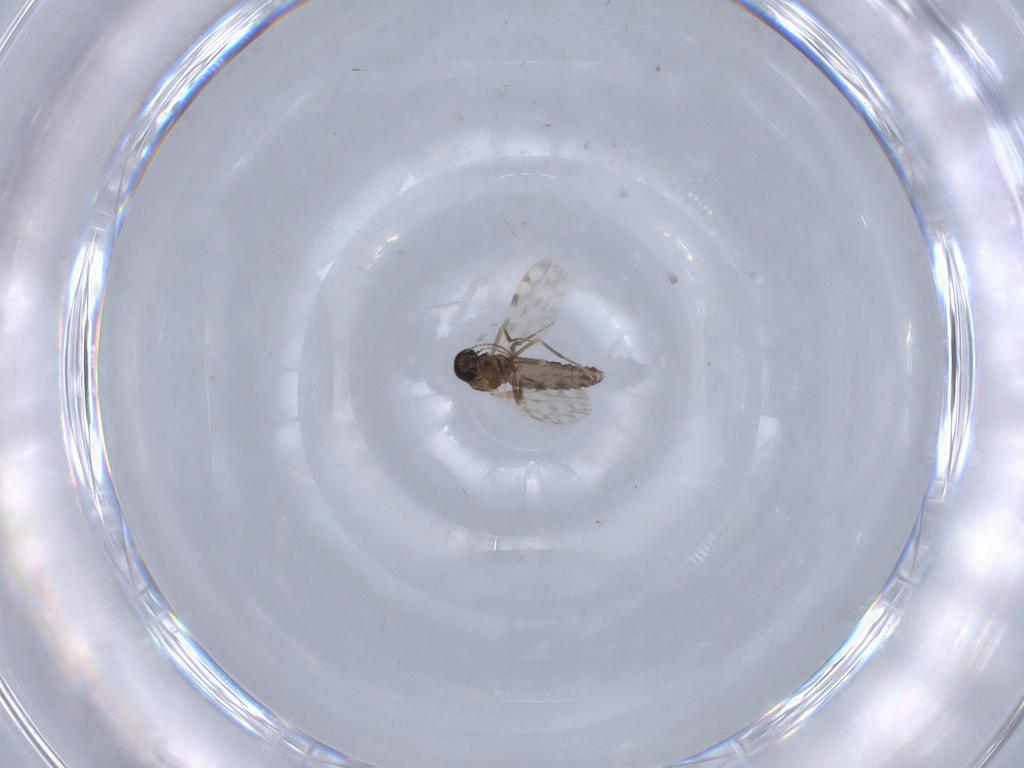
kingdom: Animalia
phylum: Arthropoda
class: Insecta
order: Diptera
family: Ceratopogonidae
